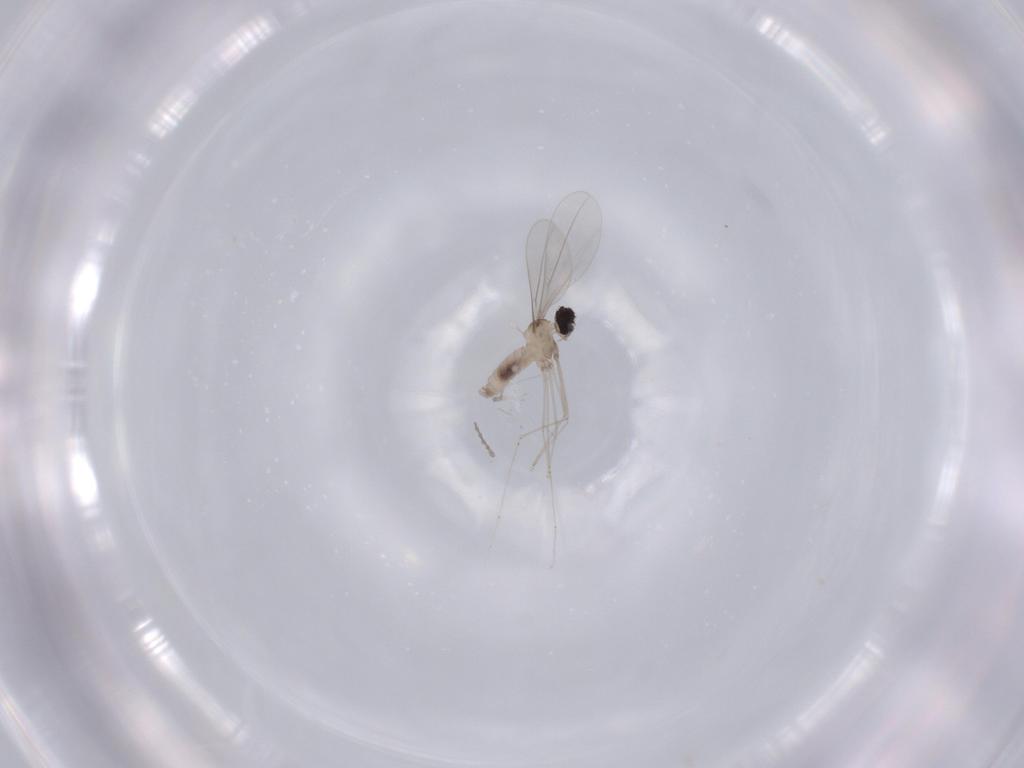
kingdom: Animalia
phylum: Arthropoda
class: Insecta
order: Diptera
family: Cecidomyiidae
